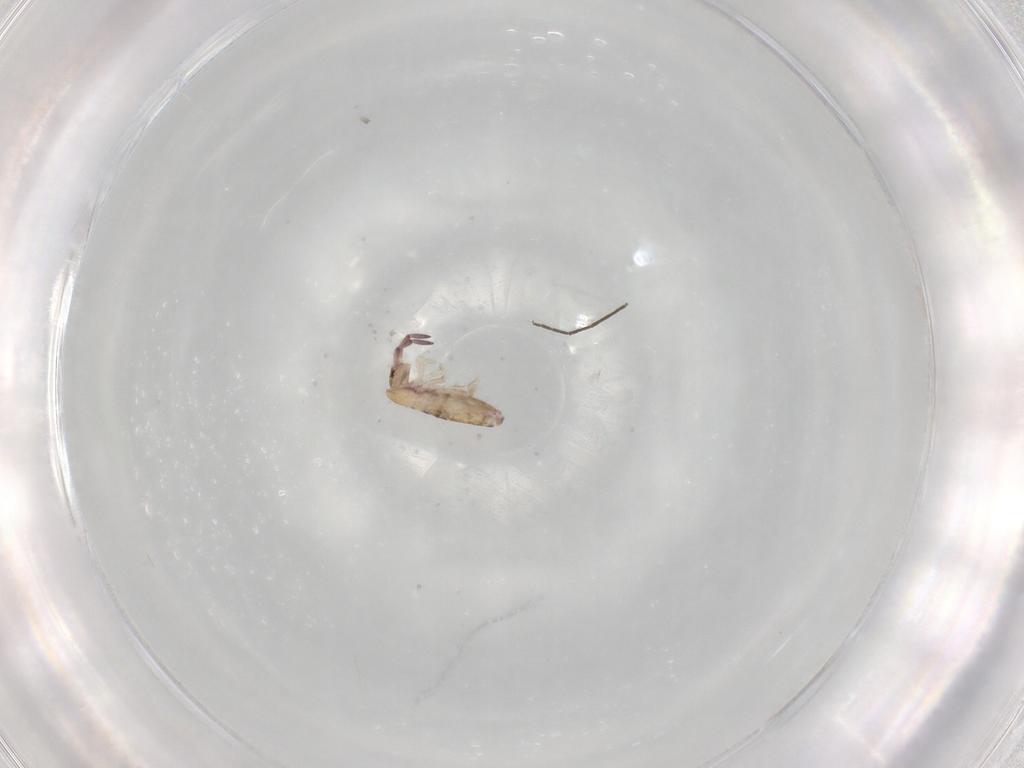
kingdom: Animalia
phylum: Arthropoda
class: Collembola
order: Entomobryomorpha
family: Entomobryidae
